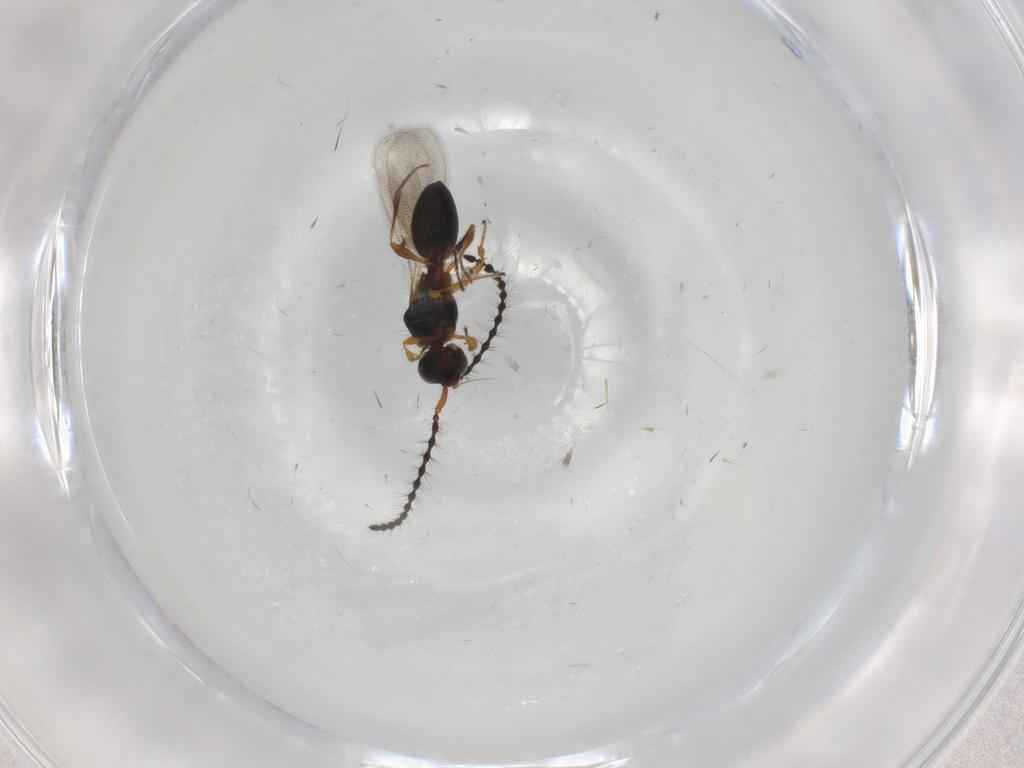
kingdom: Animalia
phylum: Arthropoda
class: Insecta
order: Hymenoptera
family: Diapriidae
